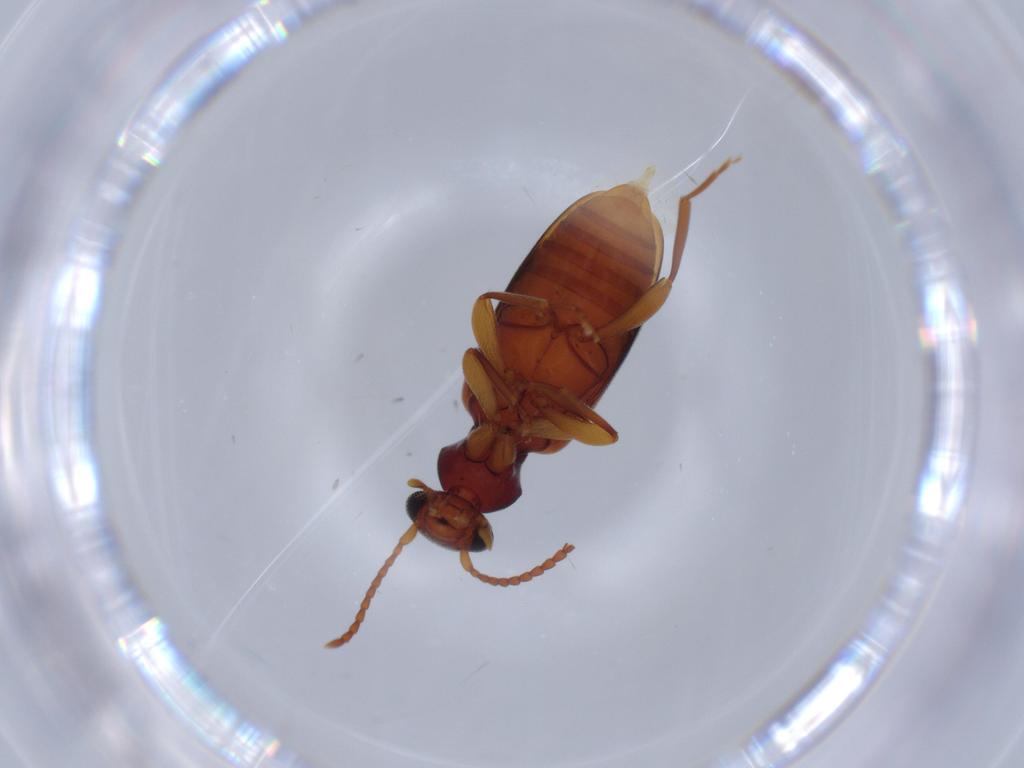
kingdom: Animalia
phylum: Arthropoda
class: Insecta
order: Coleoptera
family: Anthicidae
